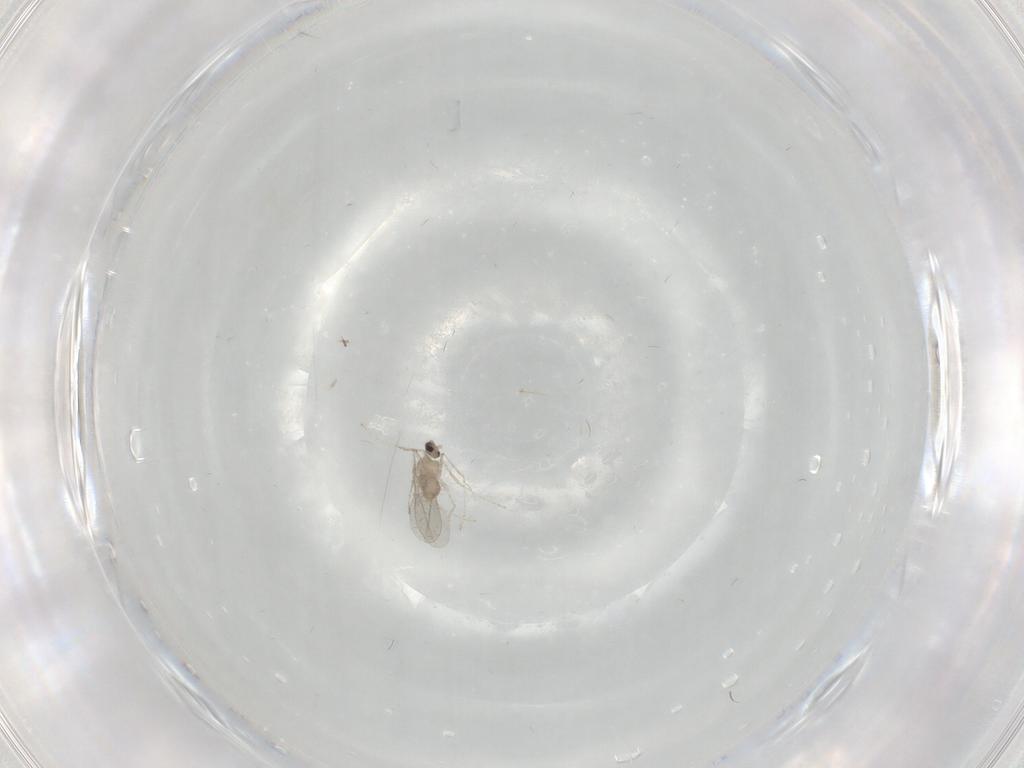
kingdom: Animalia
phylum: Arthropoda
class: Insecta
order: Diptera
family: Cecidomyiidae
